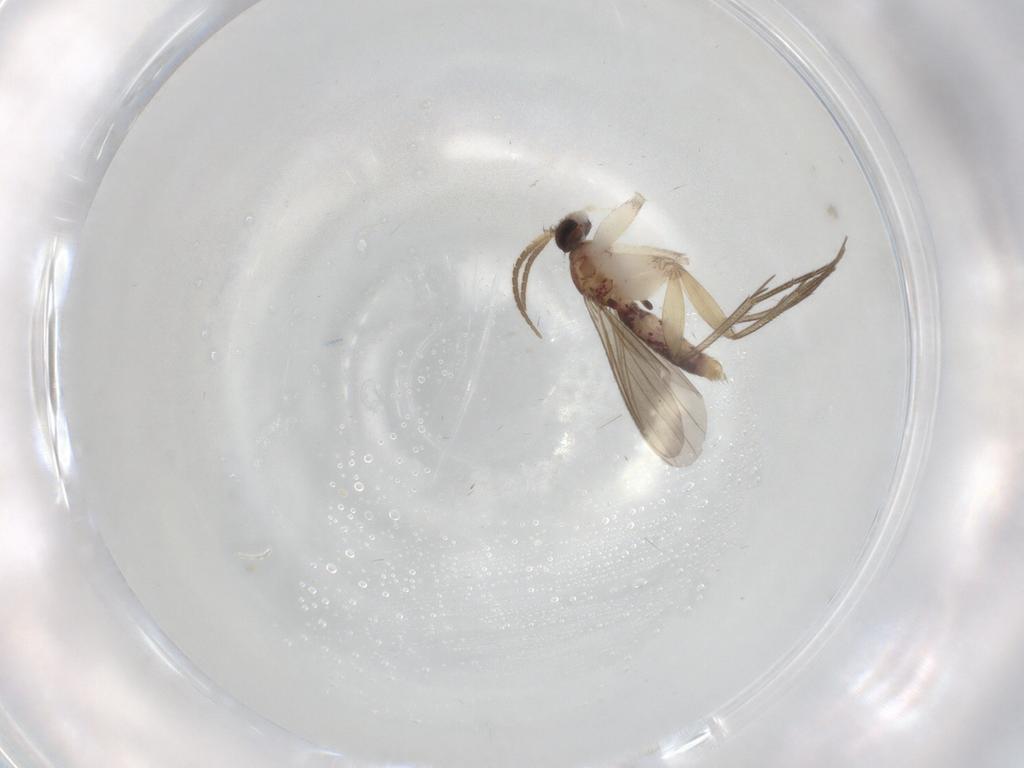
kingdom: Animalia
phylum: Arthropoda
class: Insecta
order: Diptera
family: Mycetophilidae
